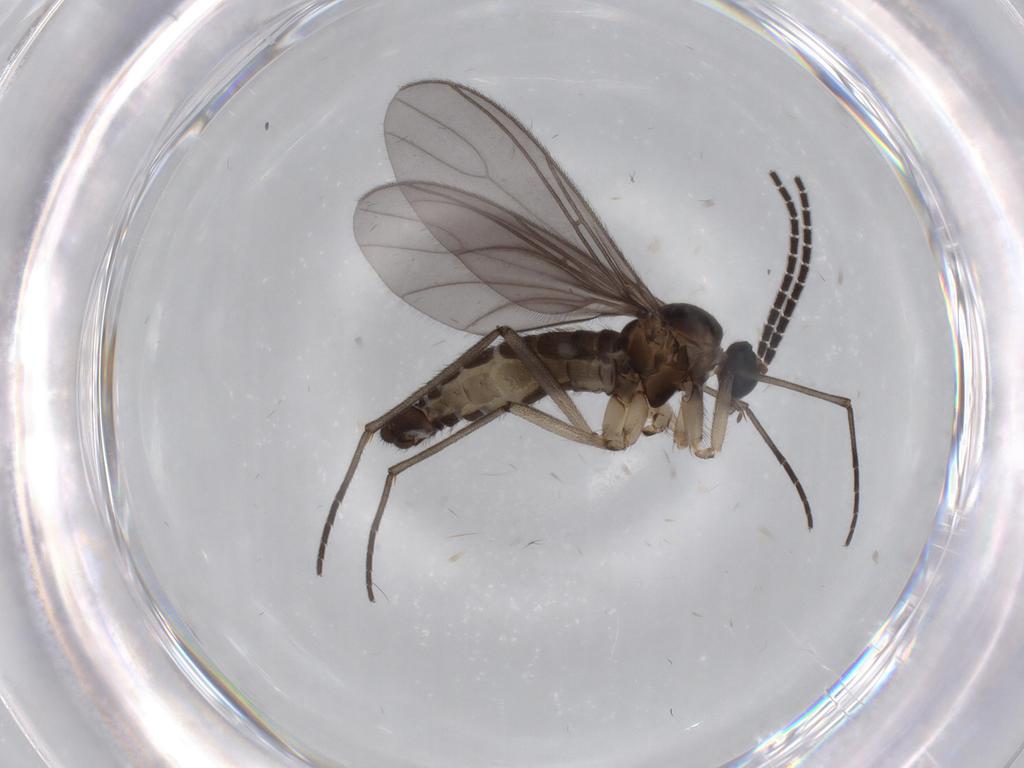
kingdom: Animalia
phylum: Arthropoda
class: Insecta
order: Diptera
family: Sciaridae
